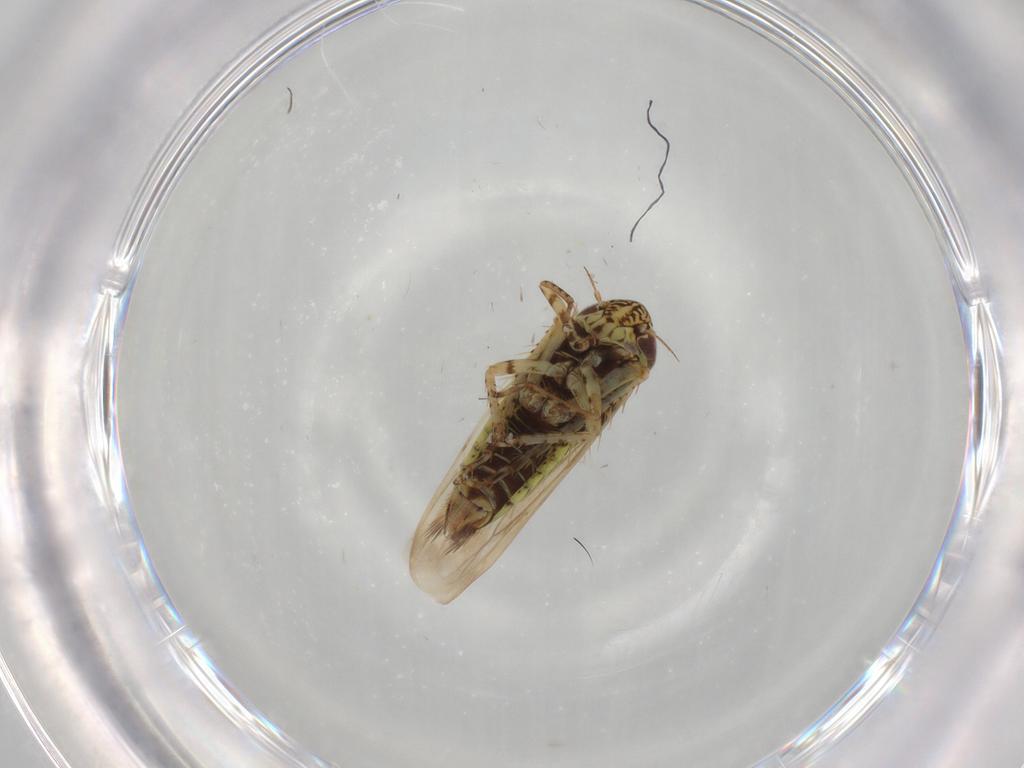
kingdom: Animalia
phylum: Arthropoda
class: Insecta
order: Hemiptera
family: Cicadellidae
